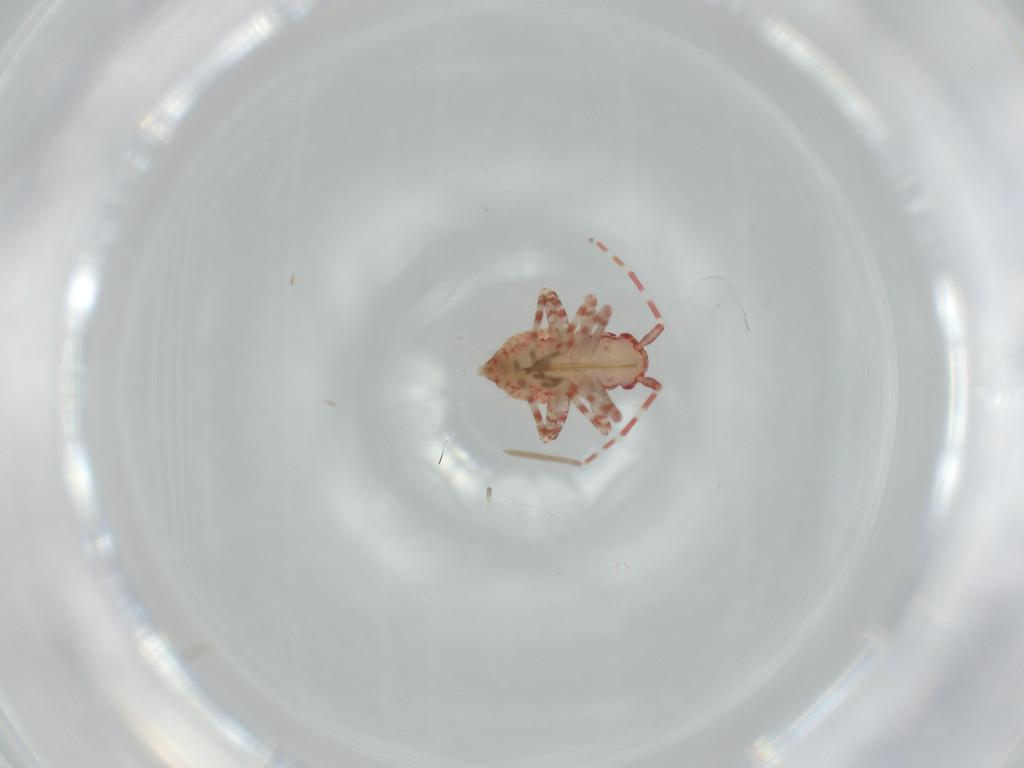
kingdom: Animalia
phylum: Arthropoda
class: Insecta
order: Hemiptera
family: Miridae
